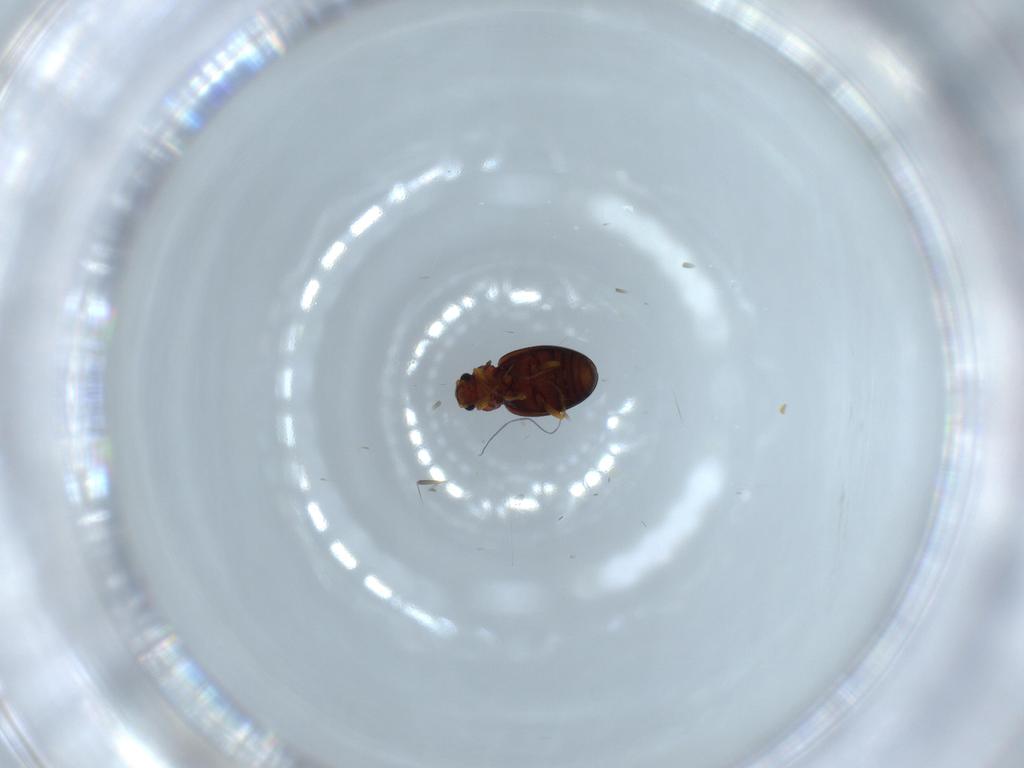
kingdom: Animalia
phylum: Arthropoda
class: Insecta
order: Coleoptera
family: Latridiidae
